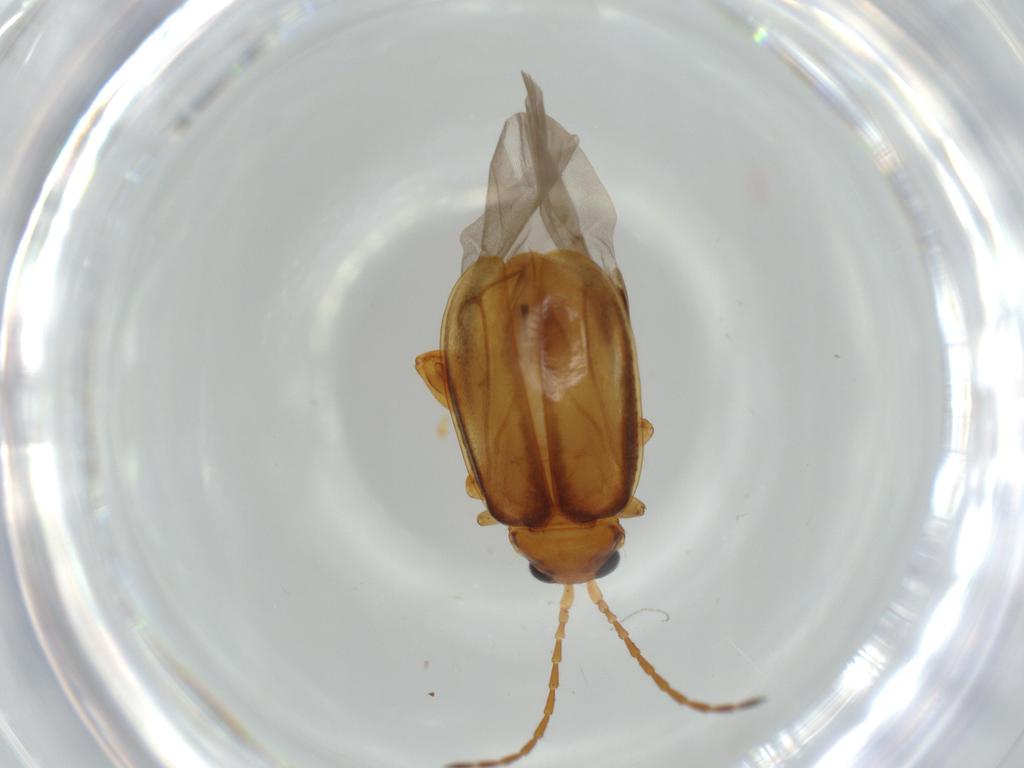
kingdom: Animalia
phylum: Arthropoda
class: Insecta
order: Coleoptera
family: Chrysomelidae
